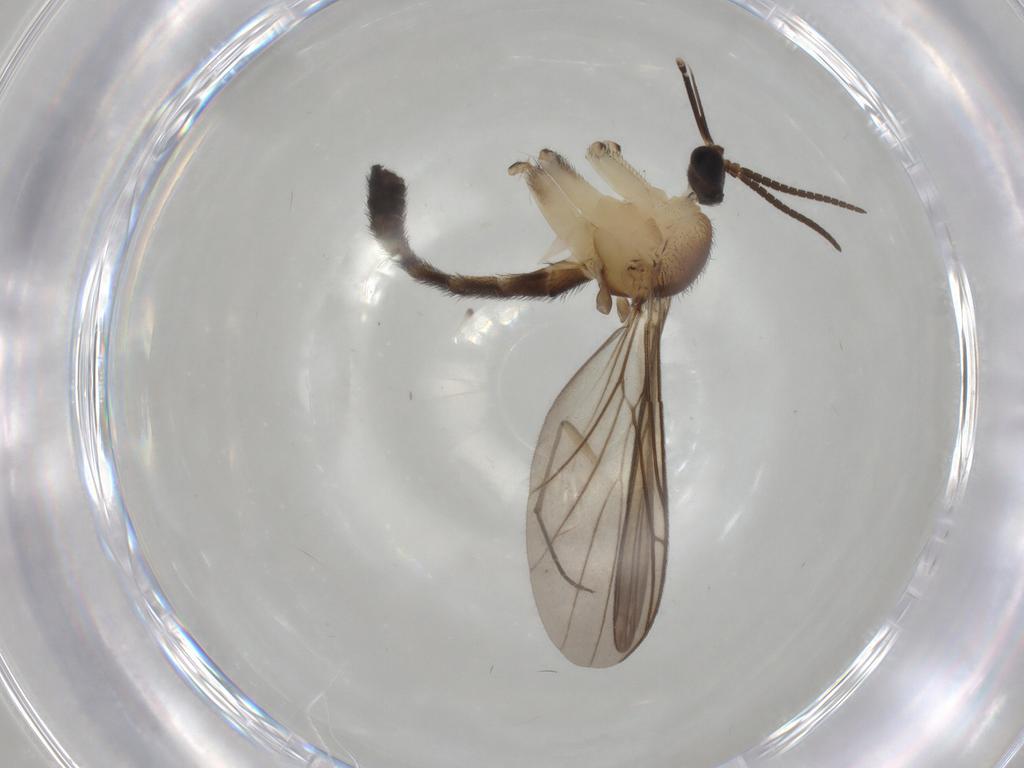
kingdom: Animalia
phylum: Arthropoda
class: Insecta
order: Diptera
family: Keroplatidae
